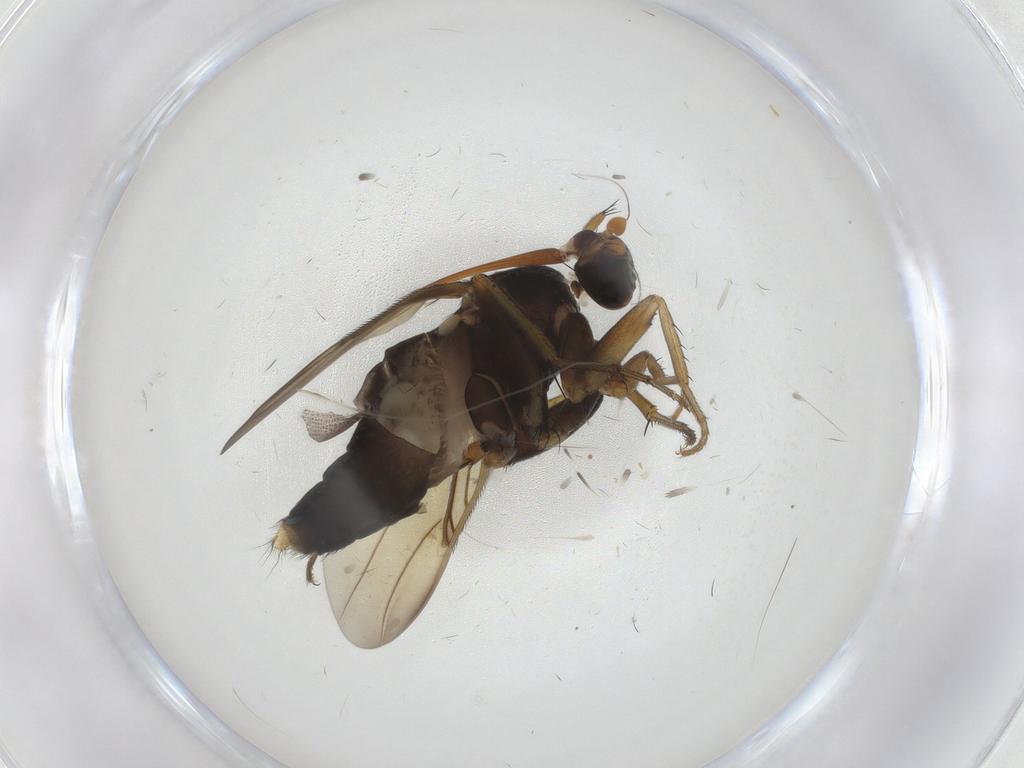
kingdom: Animalia
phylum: Arthropoda
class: Insecta
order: Diptera
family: Phoridae
